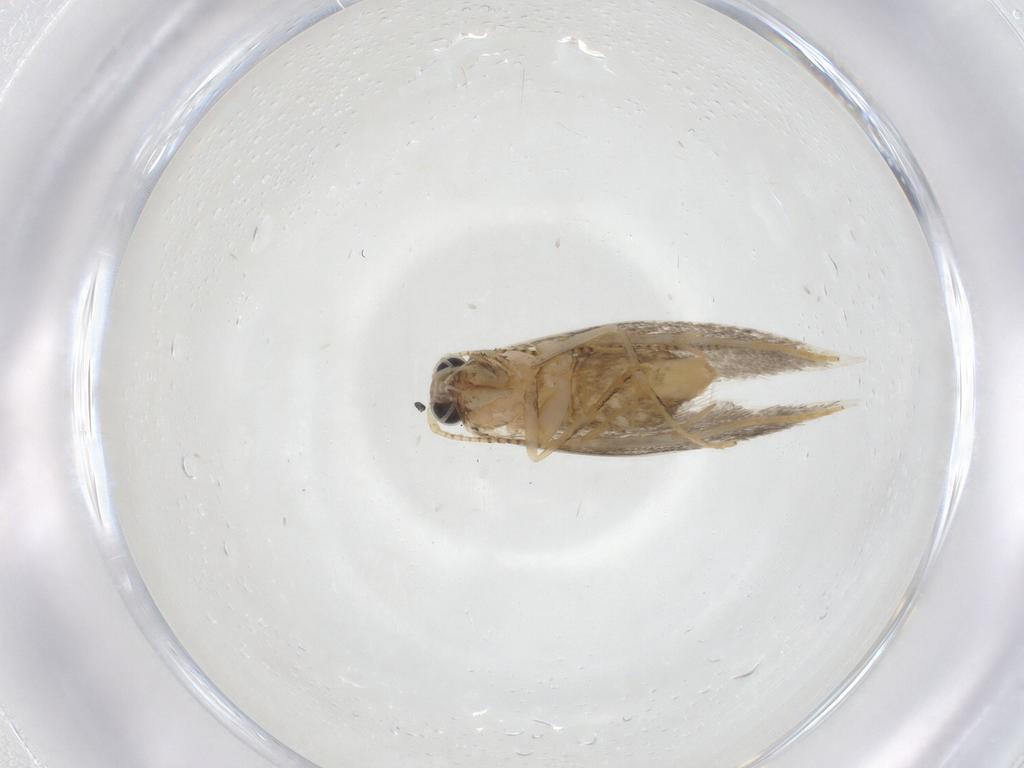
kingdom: Animalia
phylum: Arthropoda
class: Insecta
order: Lepidoptera
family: Tineidae
